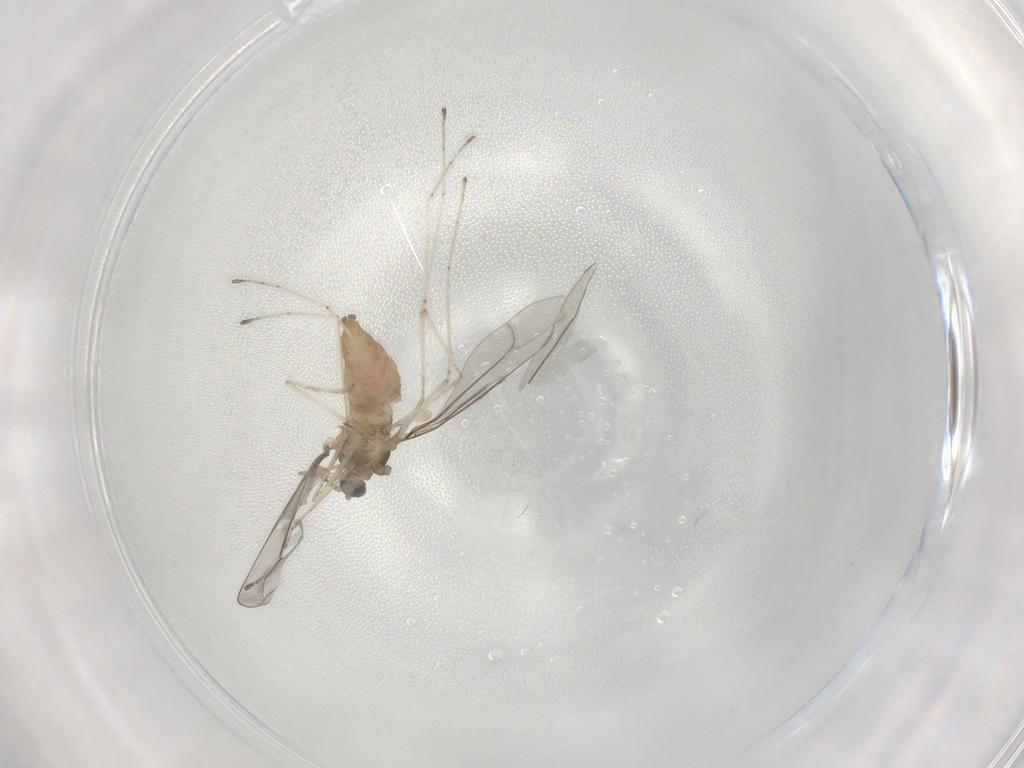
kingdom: Animalia
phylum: Arthropoda
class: Insecta
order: Diptera
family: Cecidomyiidae
